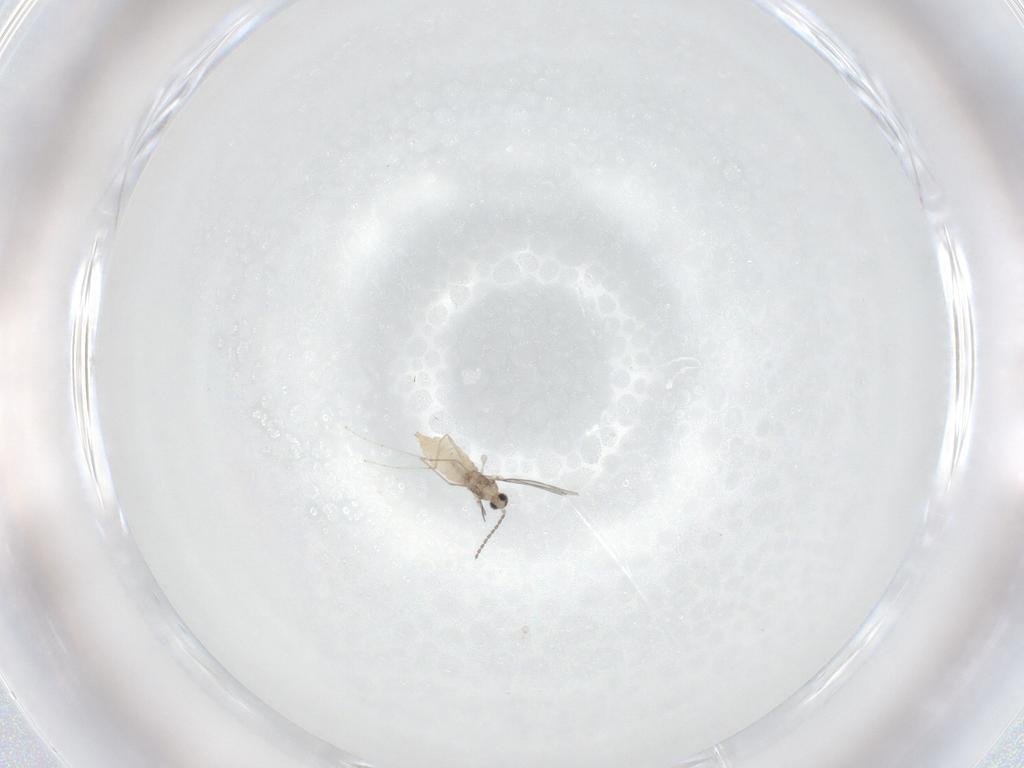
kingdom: Animalia
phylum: Arthropoda
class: Insecta
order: Diptera
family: Cecidomyiidae
